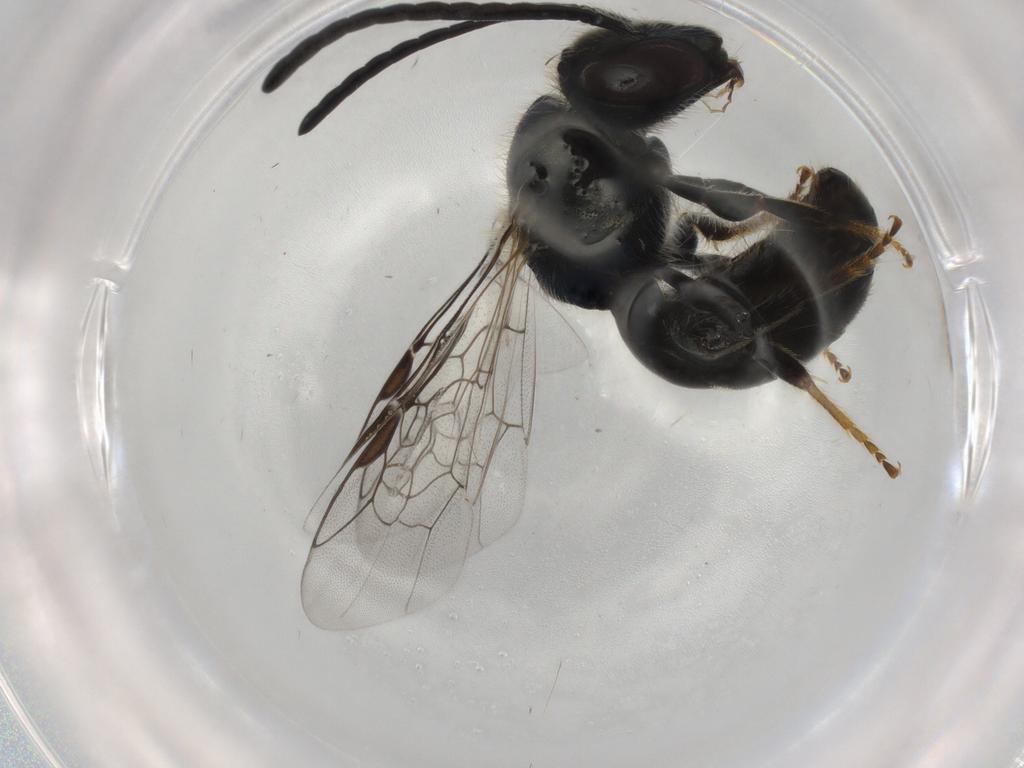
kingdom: Animalia
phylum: Arthropoda
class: Insecta
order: Hymenoptera
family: Halictidae
